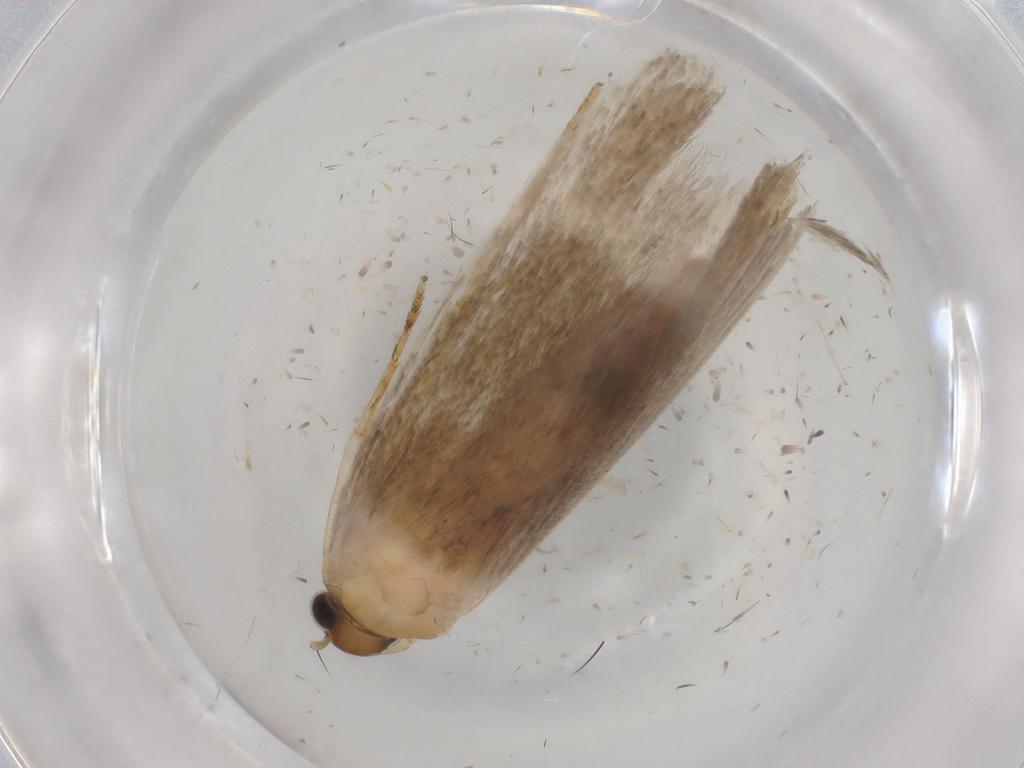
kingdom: Animalia
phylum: Arthropoda
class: Insecta
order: Lepidoptera
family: Gelechiidae
